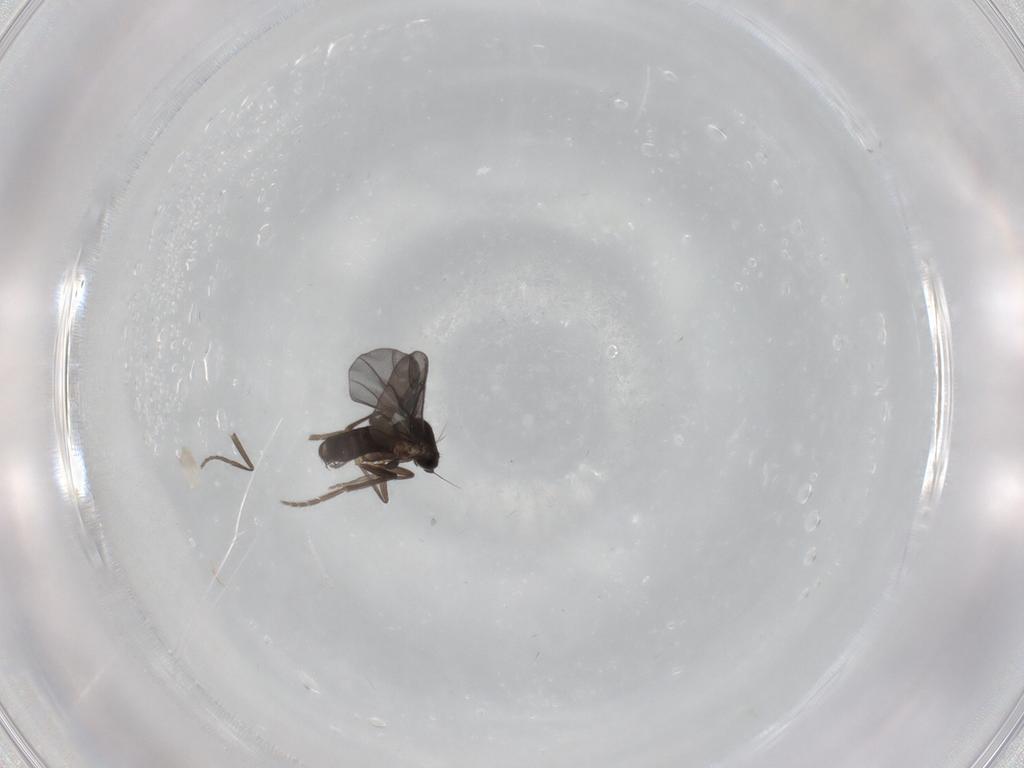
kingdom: Animalia
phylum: Arthropoda
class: Insecta
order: Diptera
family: Phoridae
